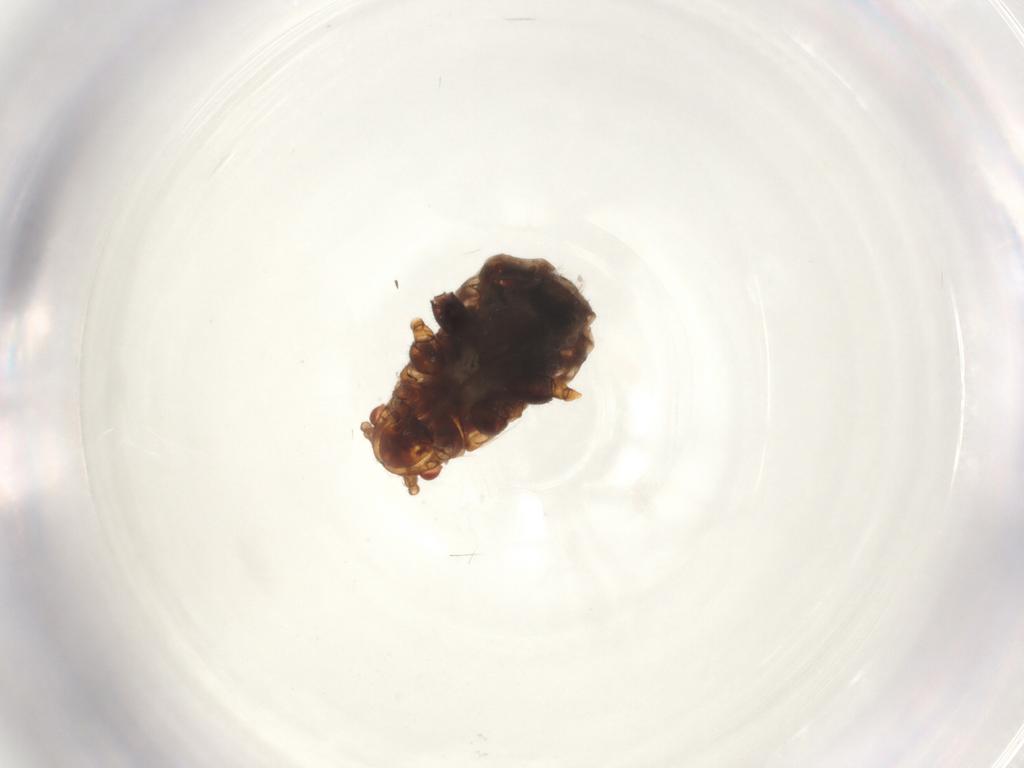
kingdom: Animalia
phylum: Arthropoda
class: Insecta
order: Hemiptera
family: Lachnidae
